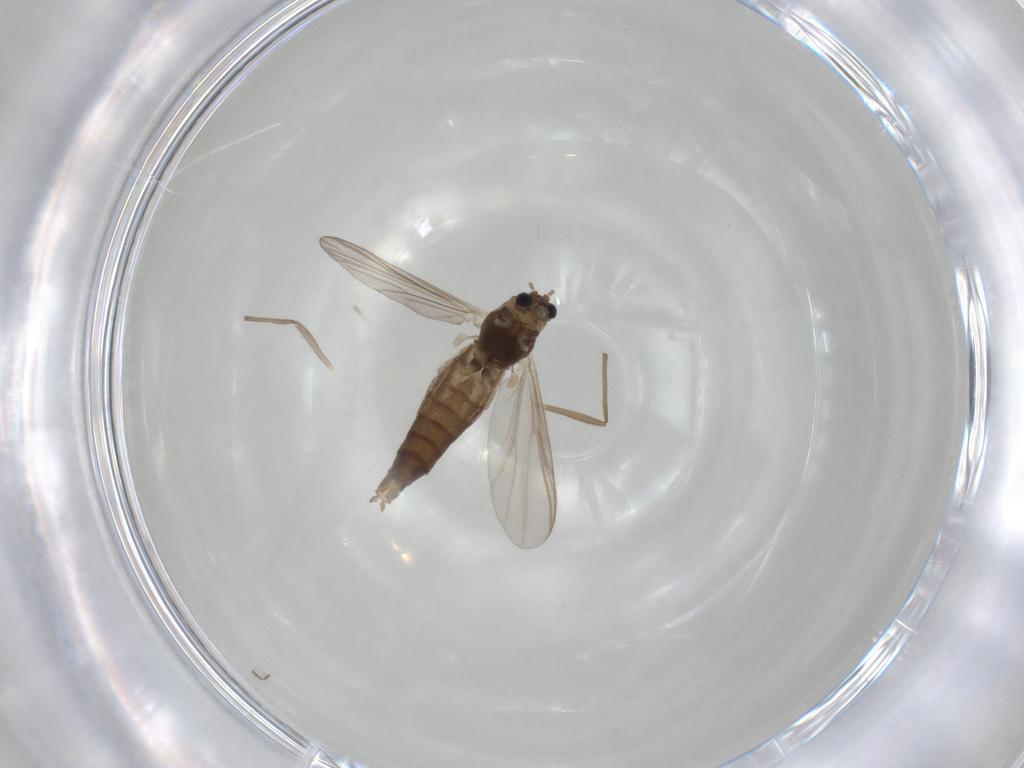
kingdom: Animalia
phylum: Arthropoda
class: Insecta
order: Diptera
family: Chironomidae
